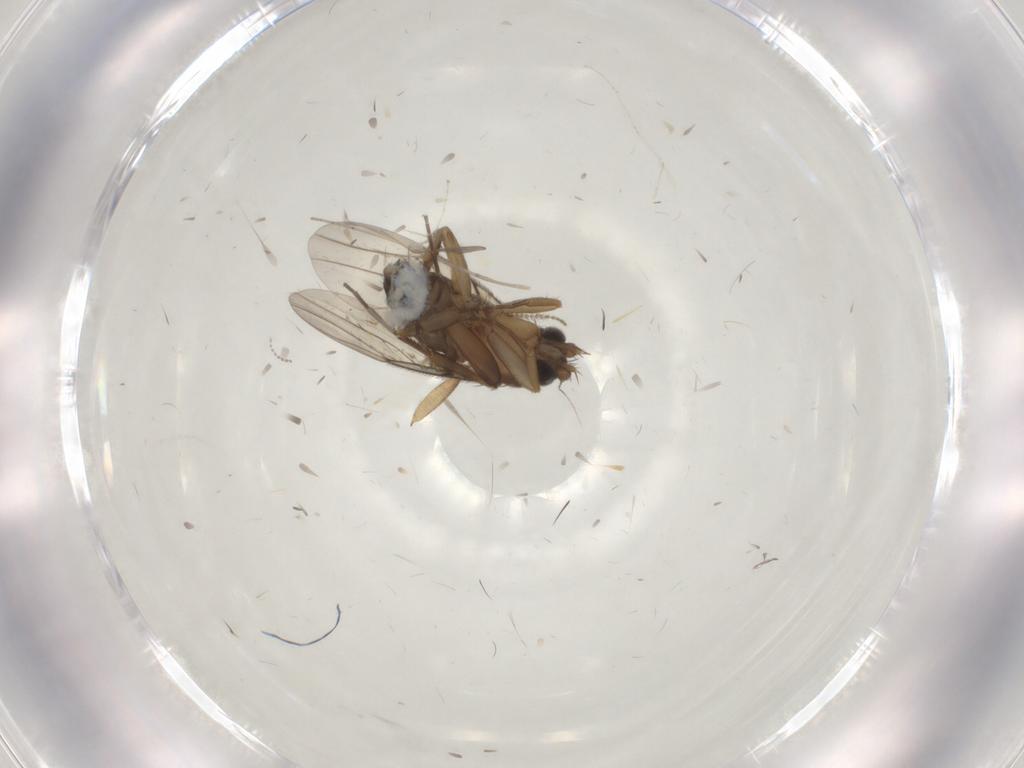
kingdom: Animalia
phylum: Arthropoda
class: Insecta
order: Diptera
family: Phoridae
